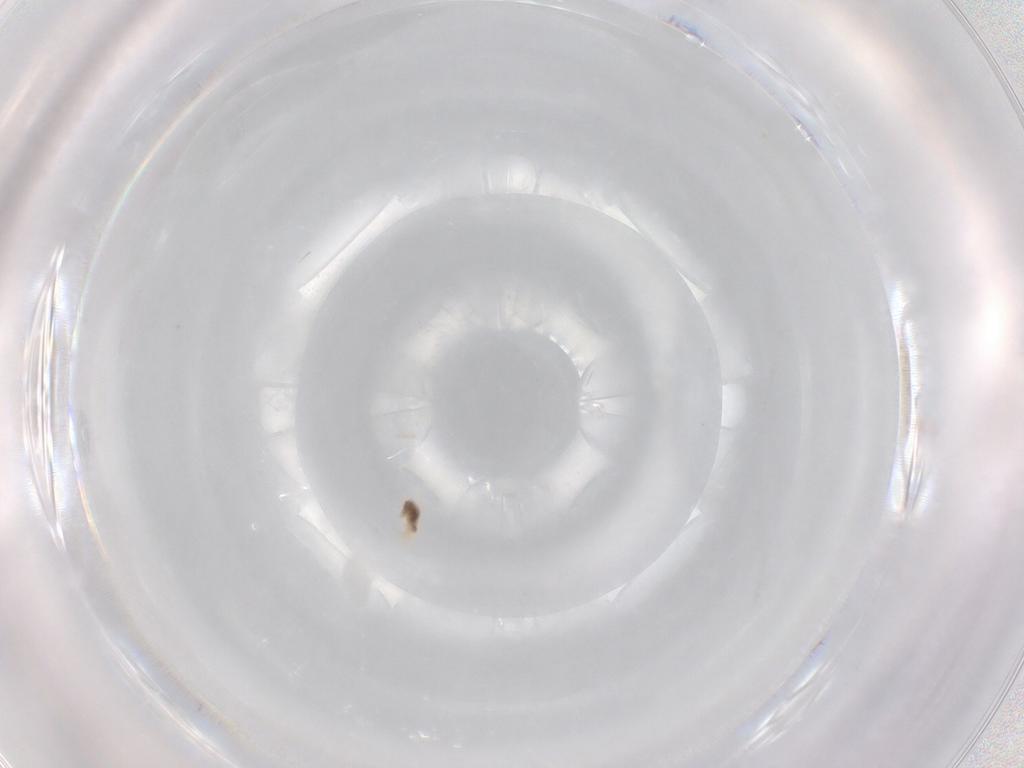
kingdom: Animalia
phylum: Arthropoda
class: Arachnida
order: Trombidiformes
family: Eupodidae
